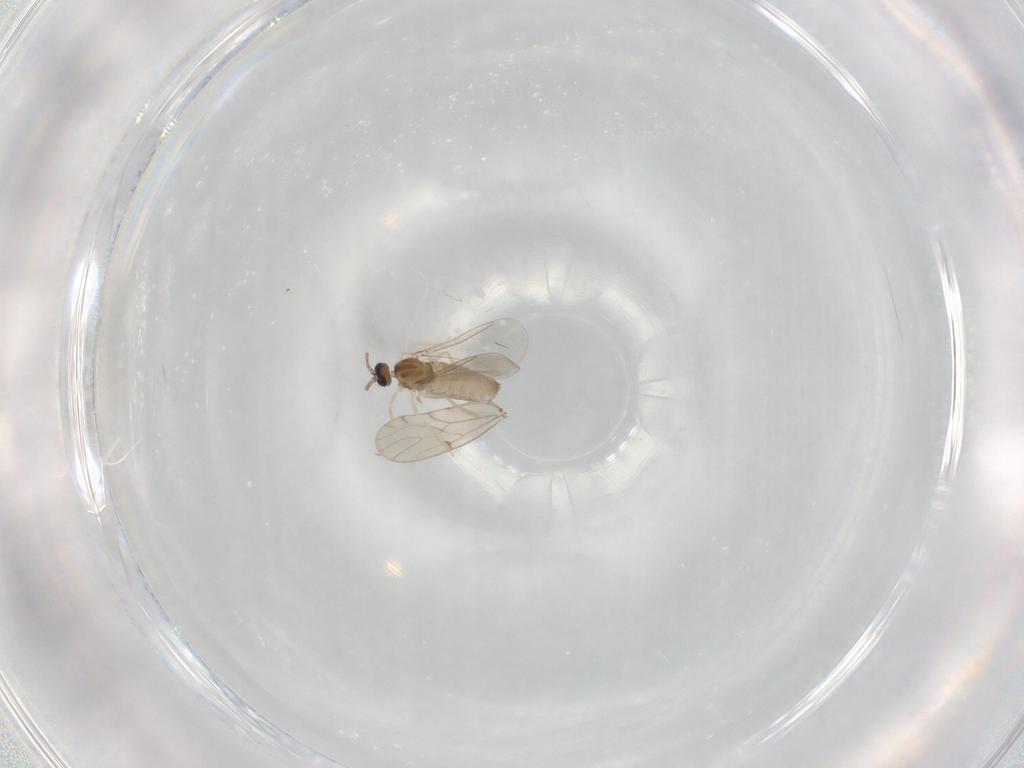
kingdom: Animalia
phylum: Arthropoda
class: Insecta
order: Diptera
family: Cecidomyiidae
